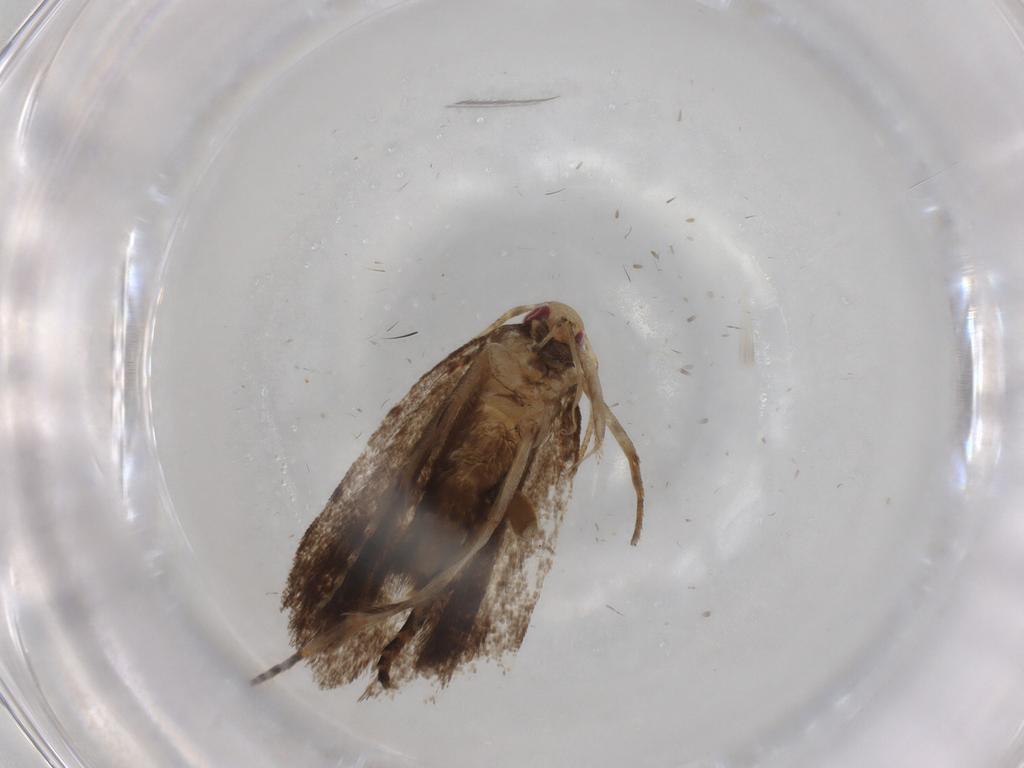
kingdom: Animalia
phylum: Arthropoda
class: Insecta
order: Lepidoptera
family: Gelechiidae
